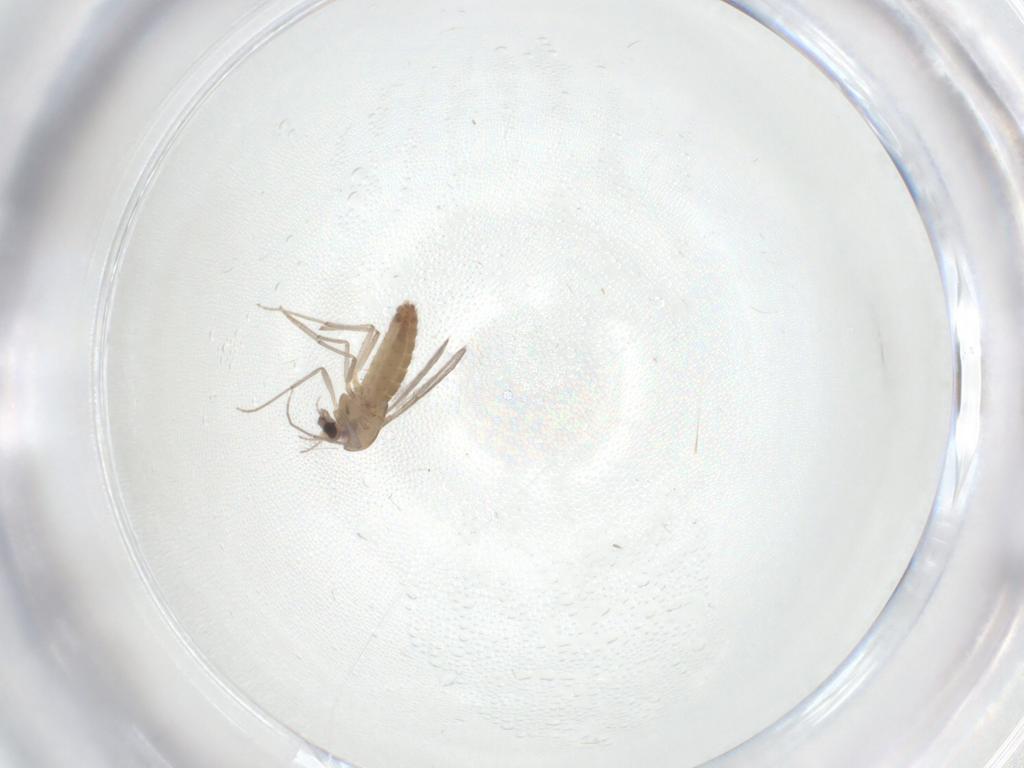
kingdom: Animalia
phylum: Arthropoda
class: Insecta
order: Diptera
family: Chironomidae
